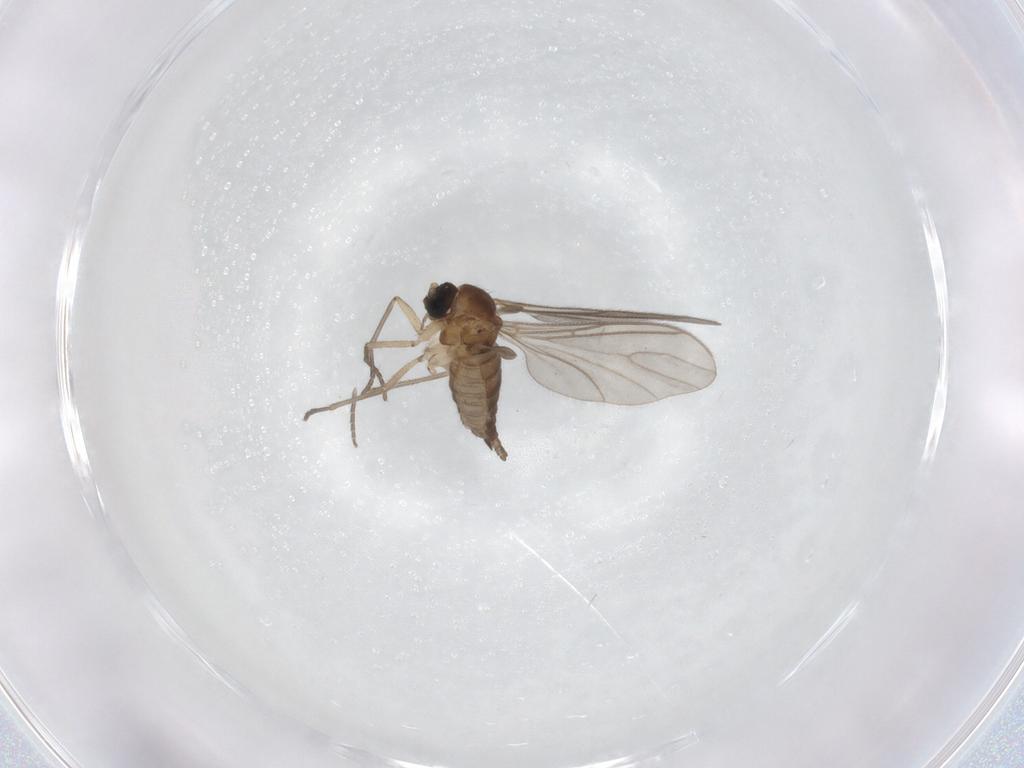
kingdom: Animalia
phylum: Arthropoda
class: Insecta
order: Diptera
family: Sciaridae
